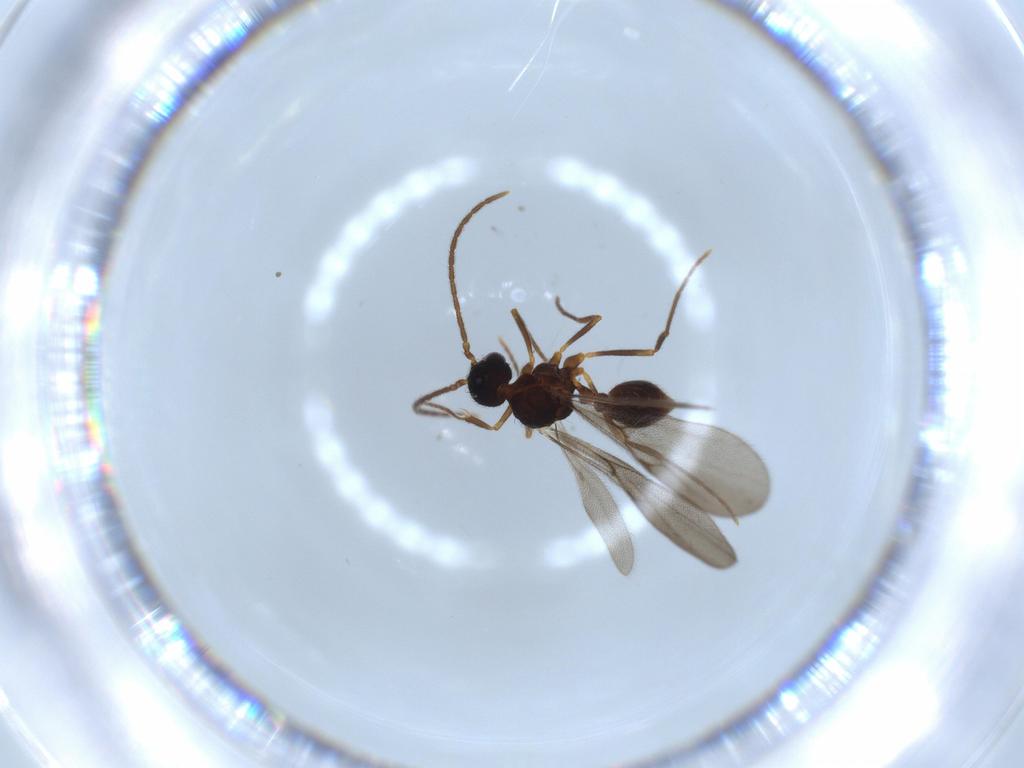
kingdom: Animalia
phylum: Arthropoda
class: Insecta
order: Hymenoptera
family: Formicidae
